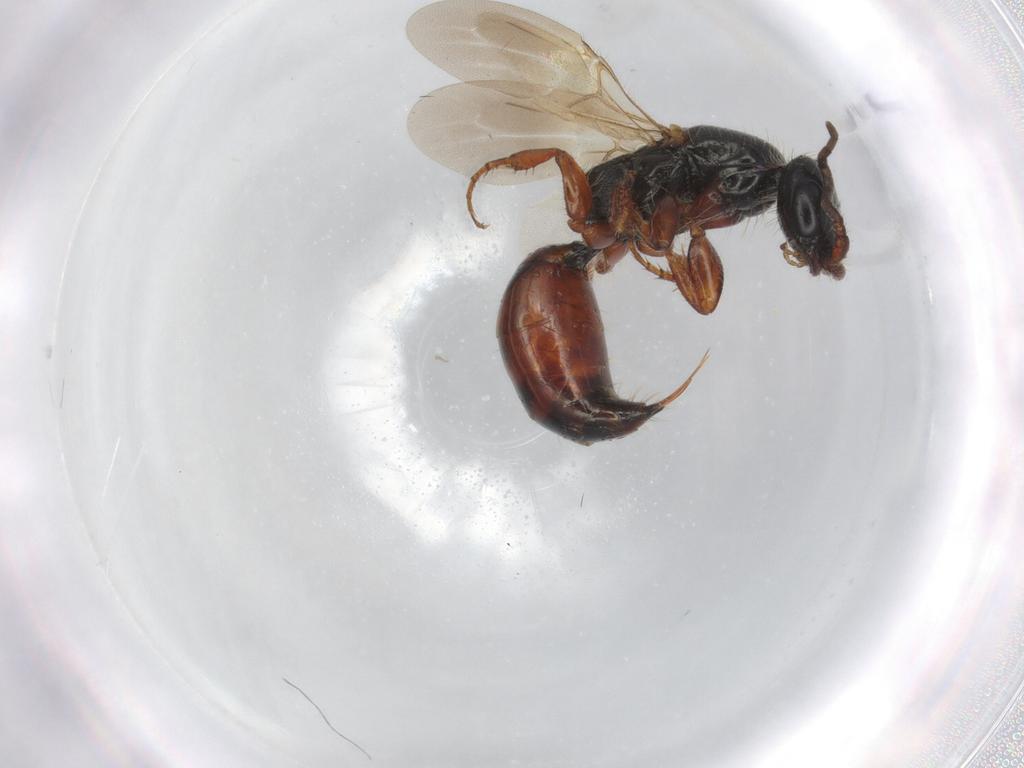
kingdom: Animalia
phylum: Arthropoda
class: Insecta
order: Hymenoptera
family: Bethylidae
